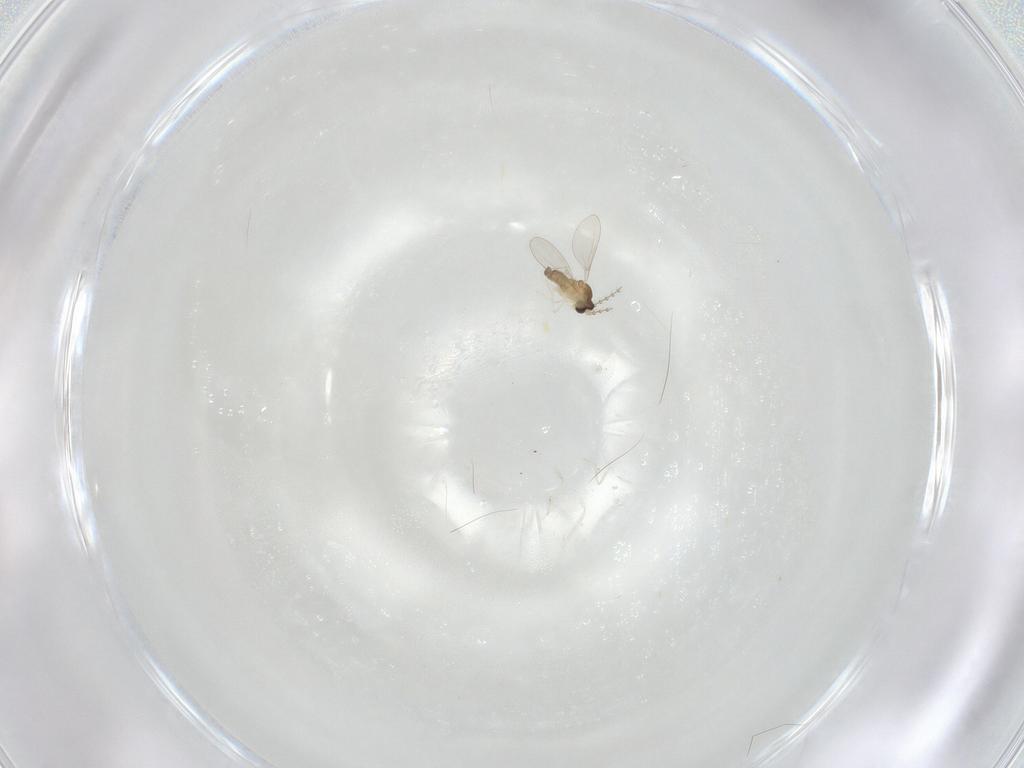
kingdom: Animalia
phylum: Arthropoda
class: Insecta
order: Diptera
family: Cecidomyiidae
